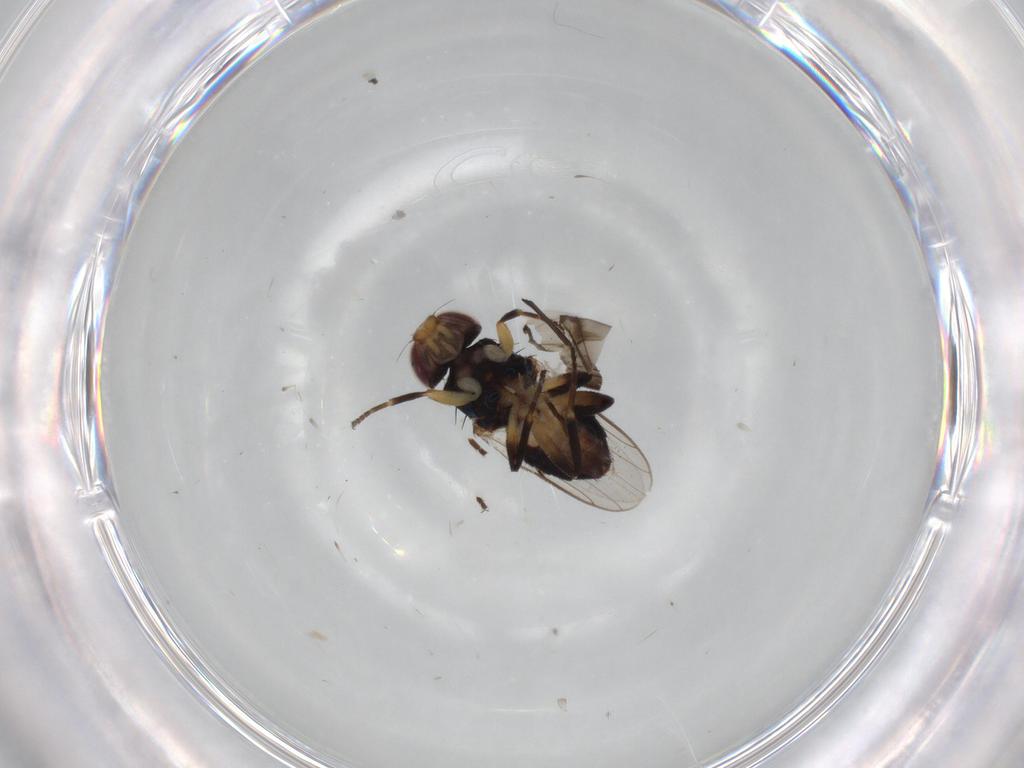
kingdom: Animalia
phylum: Arthropoda
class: Insecta
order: Diptera
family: Chloropidae
